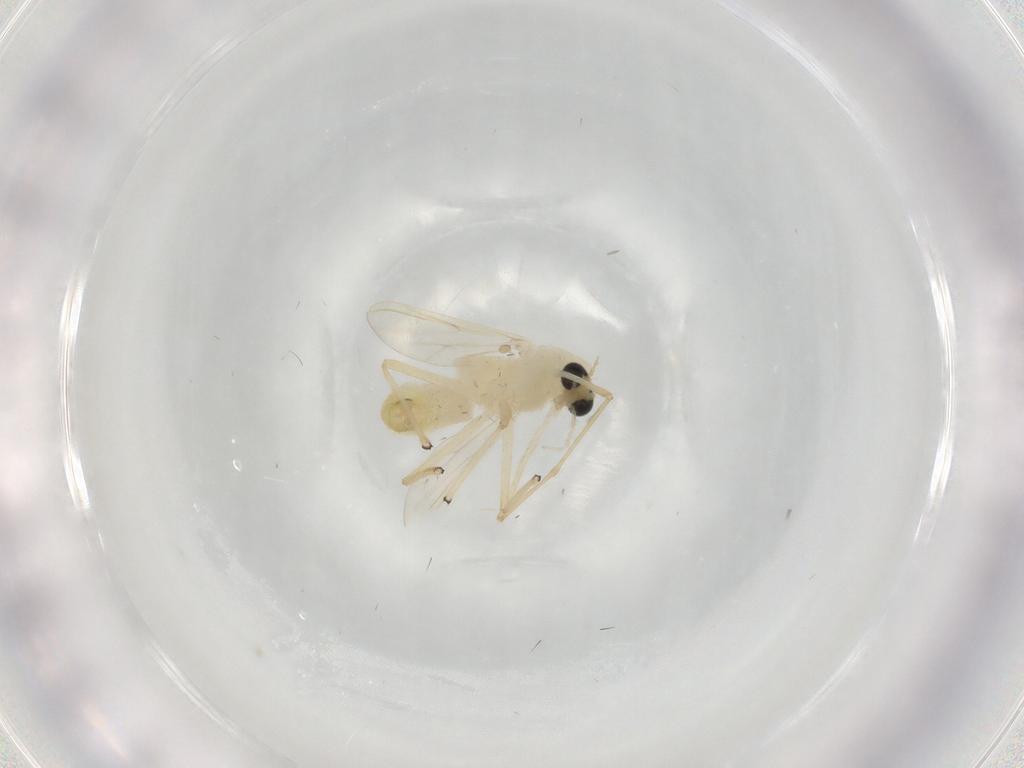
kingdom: Animalia
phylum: Arthropoda
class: Insecta
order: Diptera
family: Chironomidae
